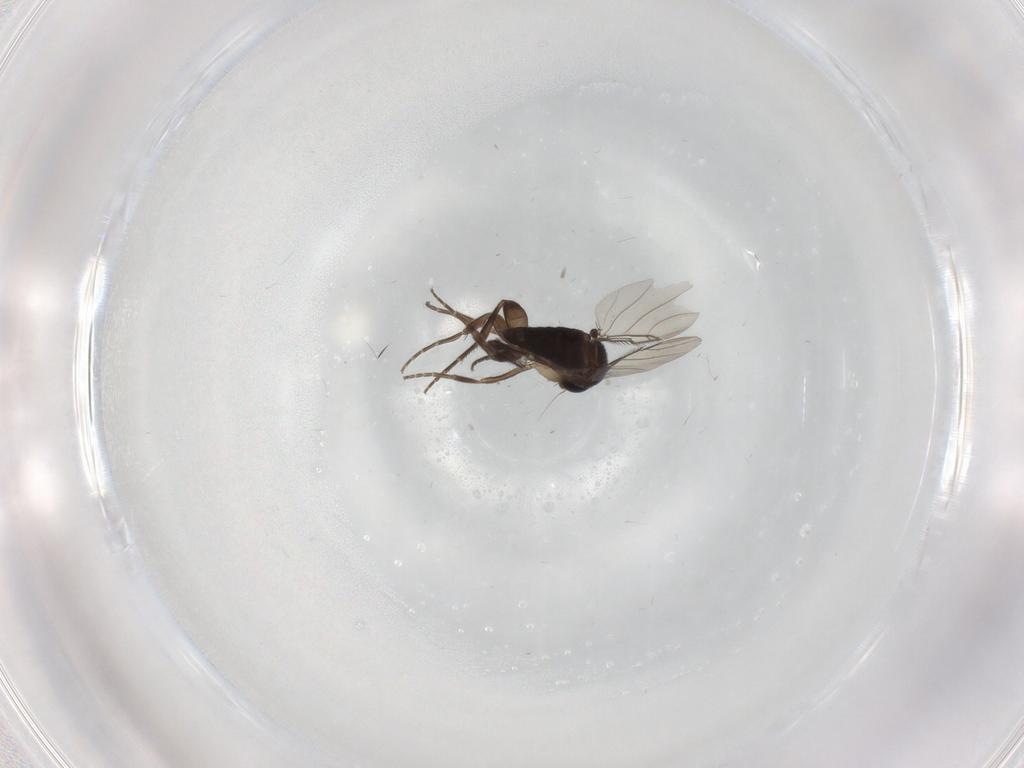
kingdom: Animalia
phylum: Arthropoda
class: Insecta
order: Diptera
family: Phoridae
